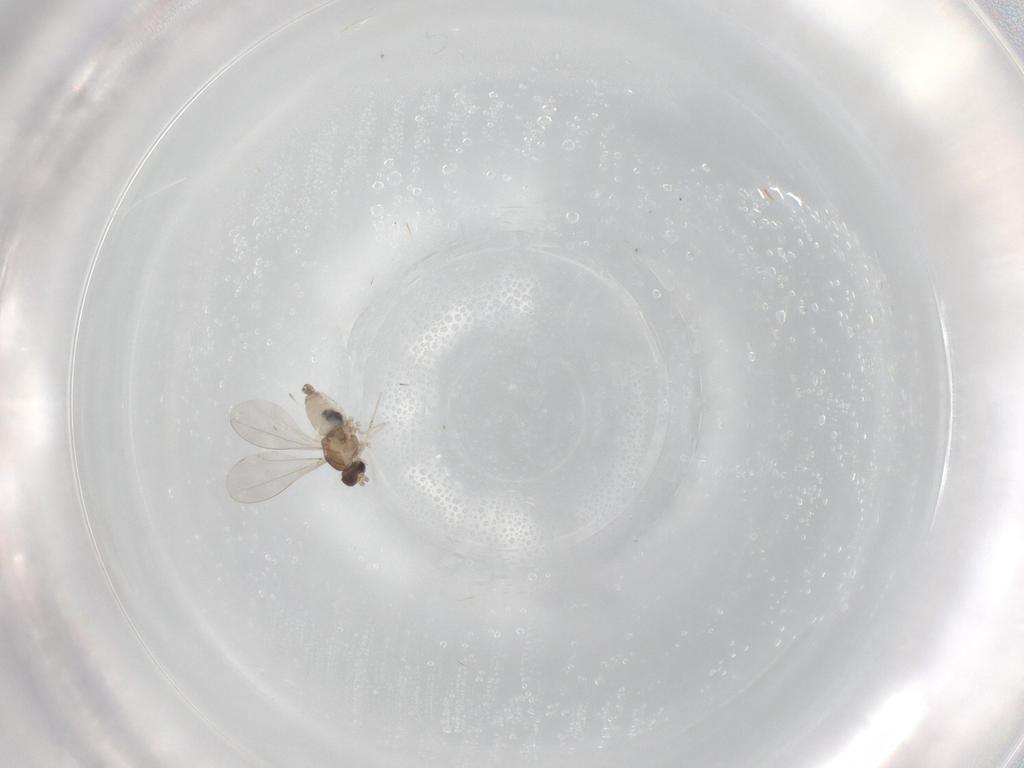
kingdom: Animalia
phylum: Arthropoda
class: Insecta
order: Diptera
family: Cecidomyiidae
